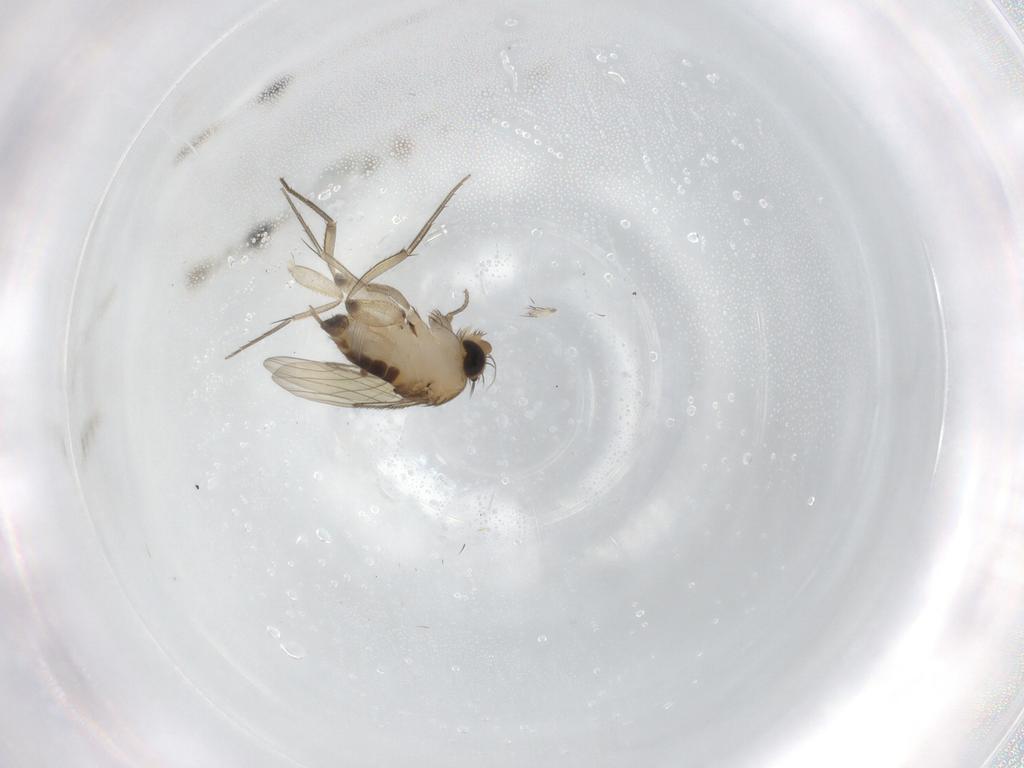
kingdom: Animalia
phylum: Arthropoda
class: Insecta
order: Diptera
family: Phoridae
